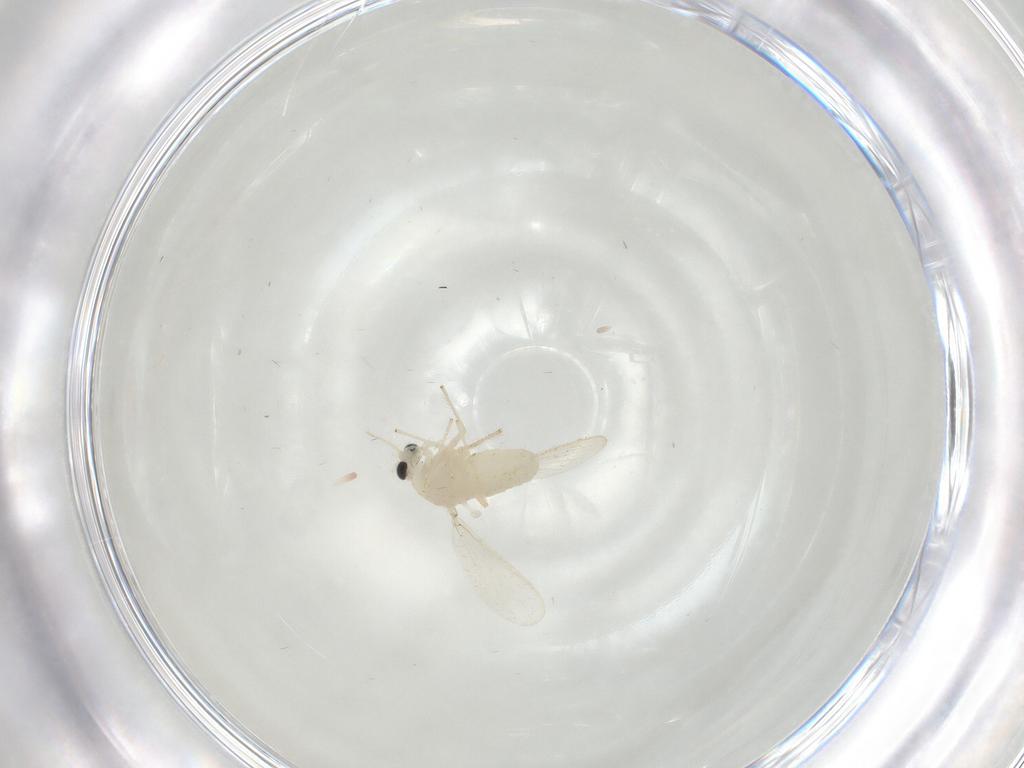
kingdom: Animalia
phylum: Arthropoda
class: Insecta
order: Diptera
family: Chironomidae
